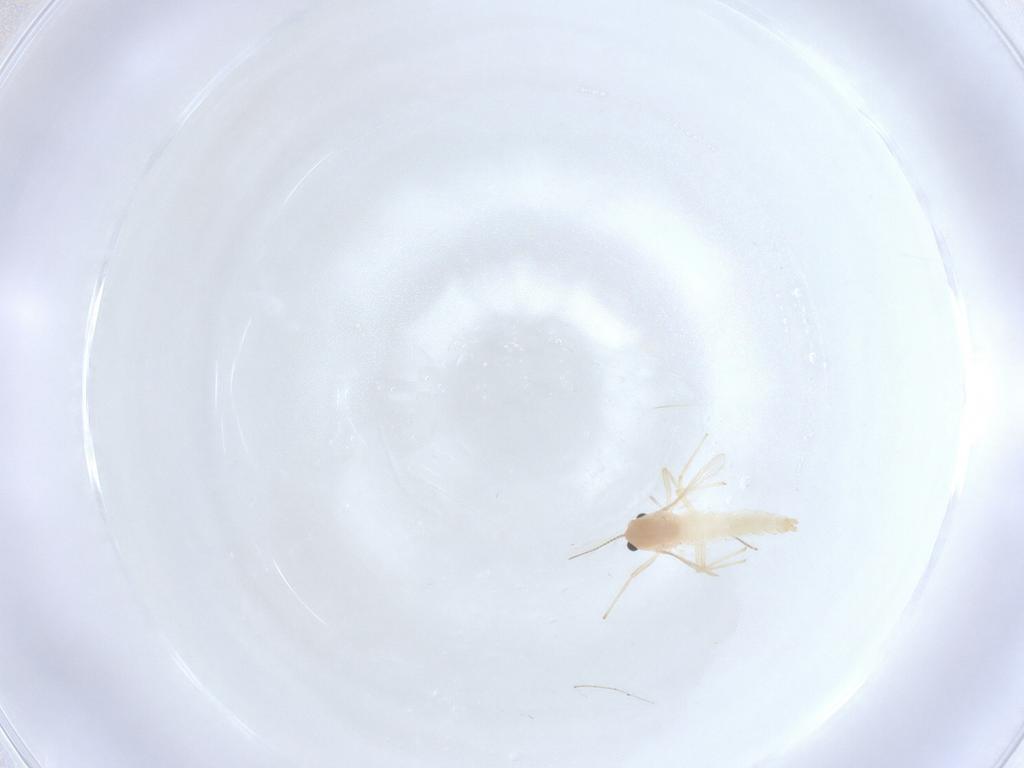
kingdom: Animalia
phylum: Arthropoda
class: Insecta
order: Diptera
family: Chironomidae
